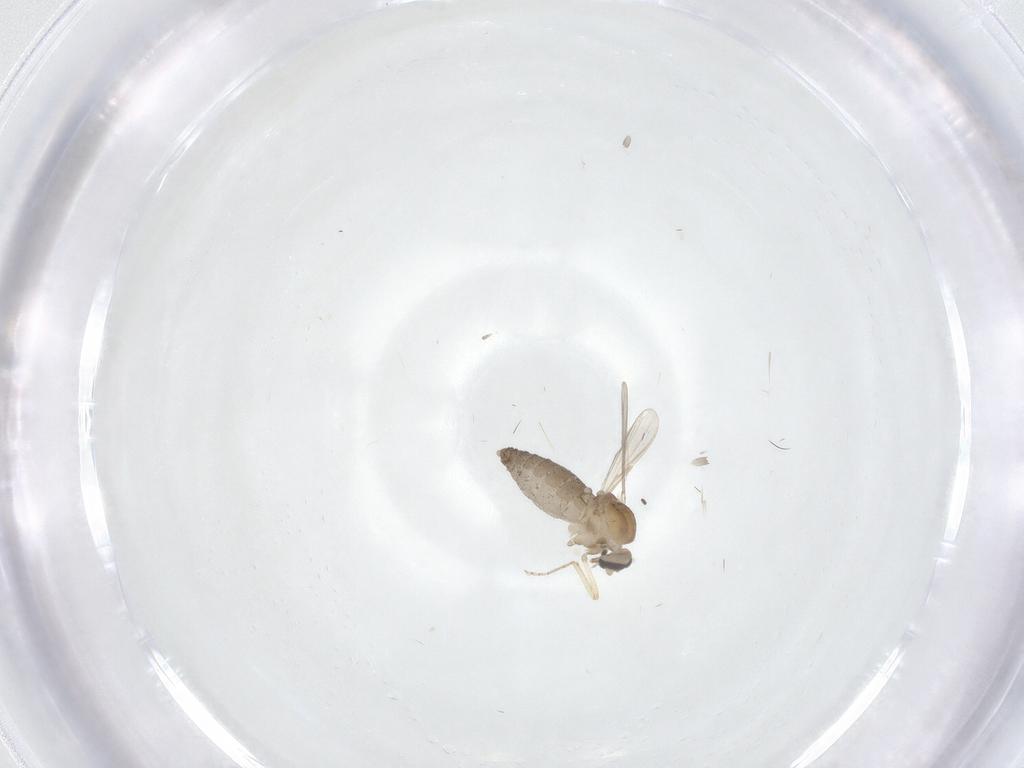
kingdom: Animalia
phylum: Arthropoda
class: Insecta
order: Diptera
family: Ceratopogonidae
